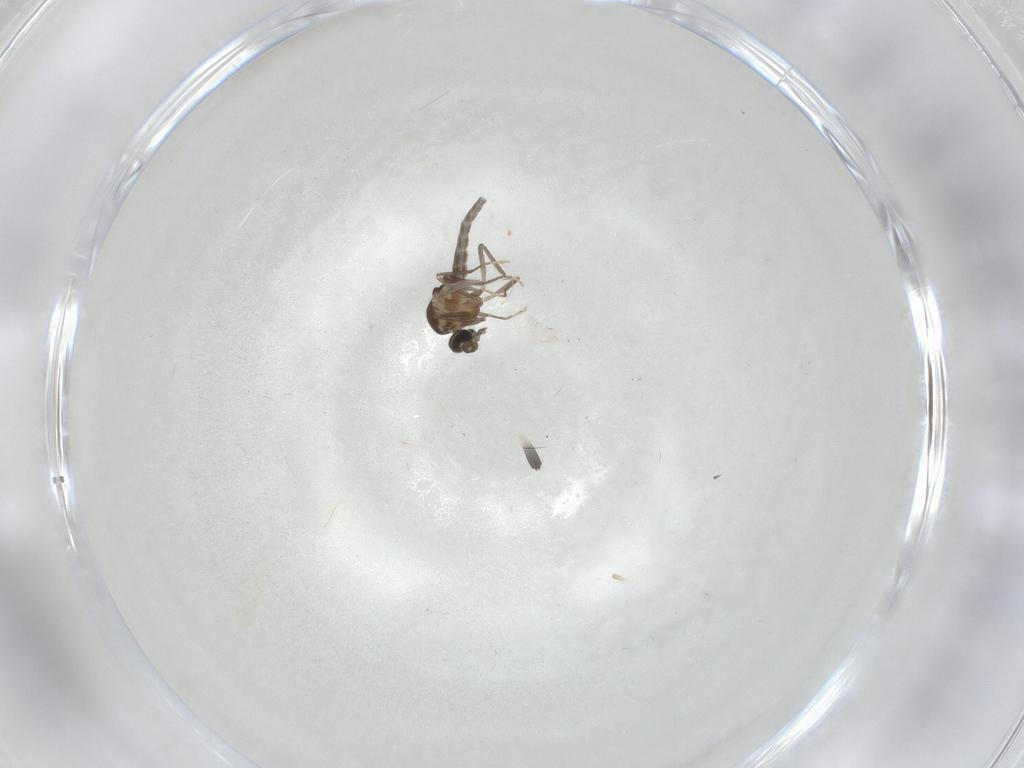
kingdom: Animalia
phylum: Arthropoda
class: Insecta
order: Diptera
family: Ceratopogonidae
